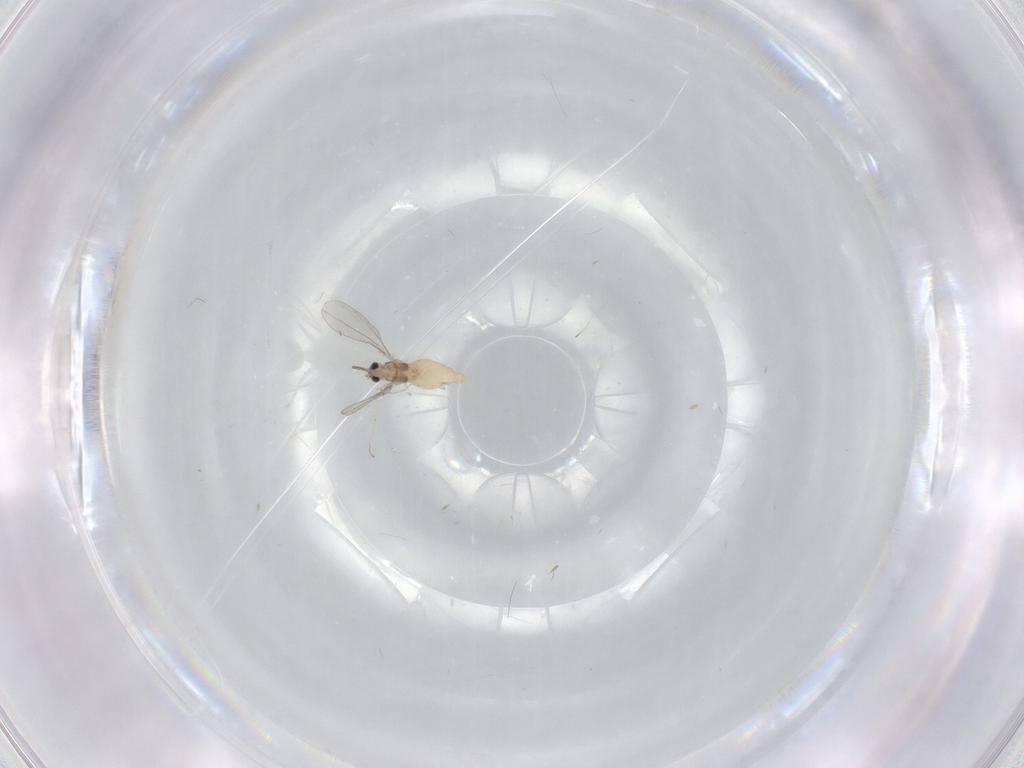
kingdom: Animalia
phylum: Arthropoda
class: Insecta
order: Diptera
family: Cecidomyiidae
